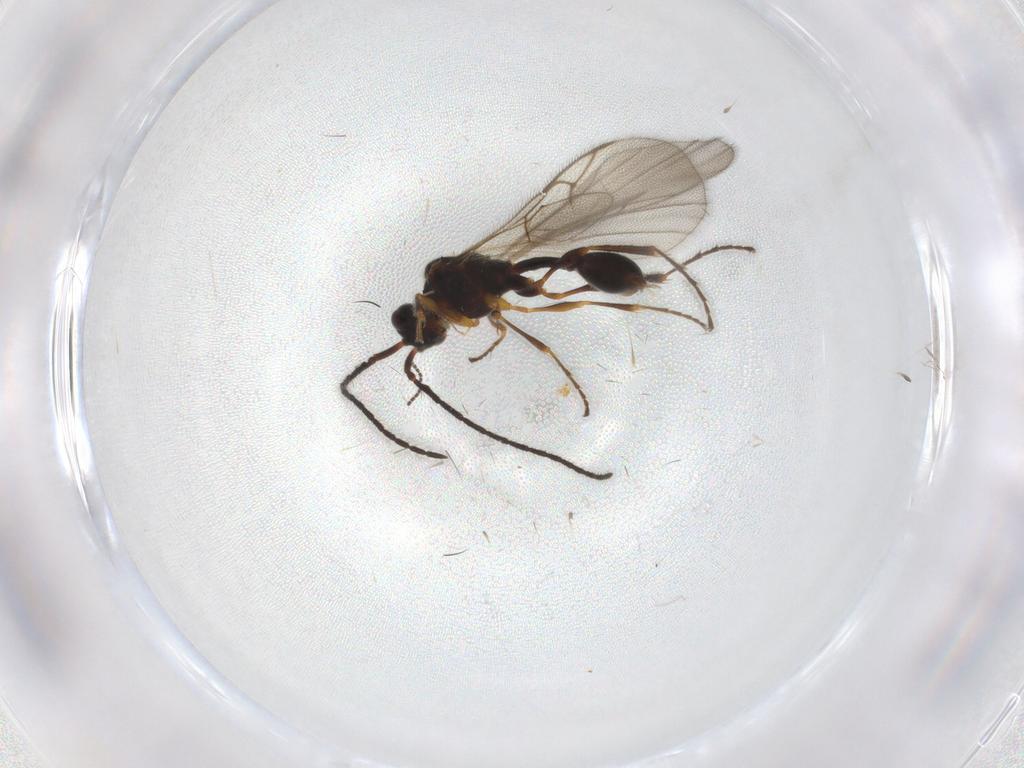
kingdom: Animalia
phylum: Arthropoda
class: Insecta
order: Hymenoptera
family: Diapriidae
